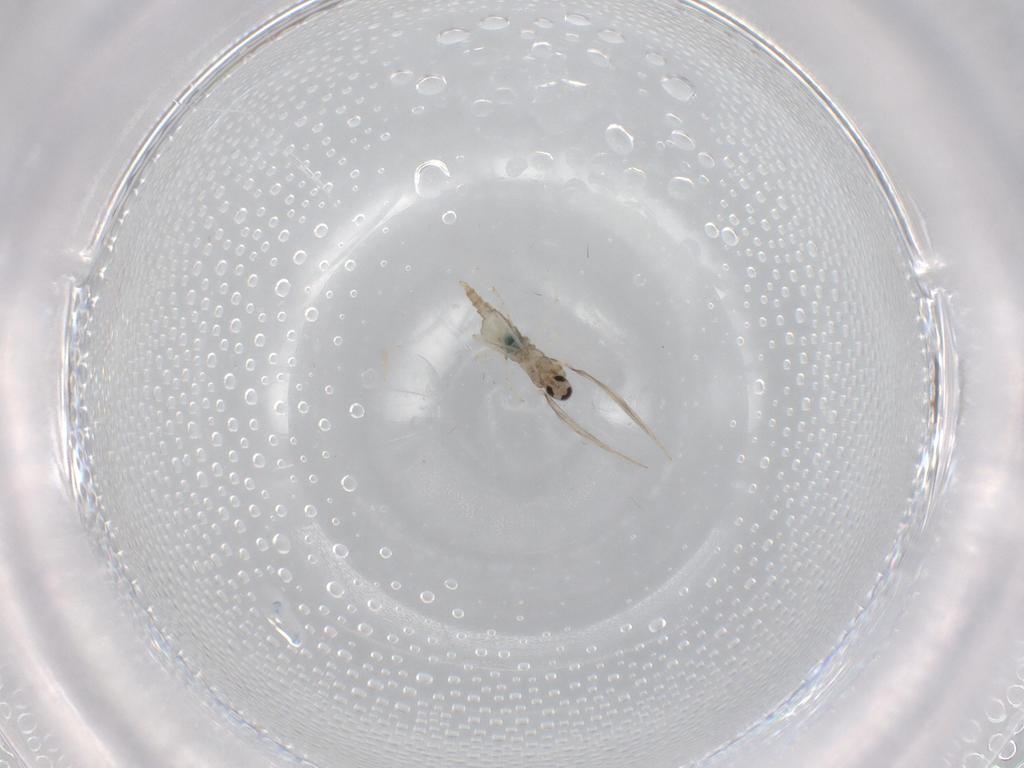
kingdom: Animalia
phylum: Arthropoda
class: Insecta
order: Diptera
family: Cecidomyiidae
